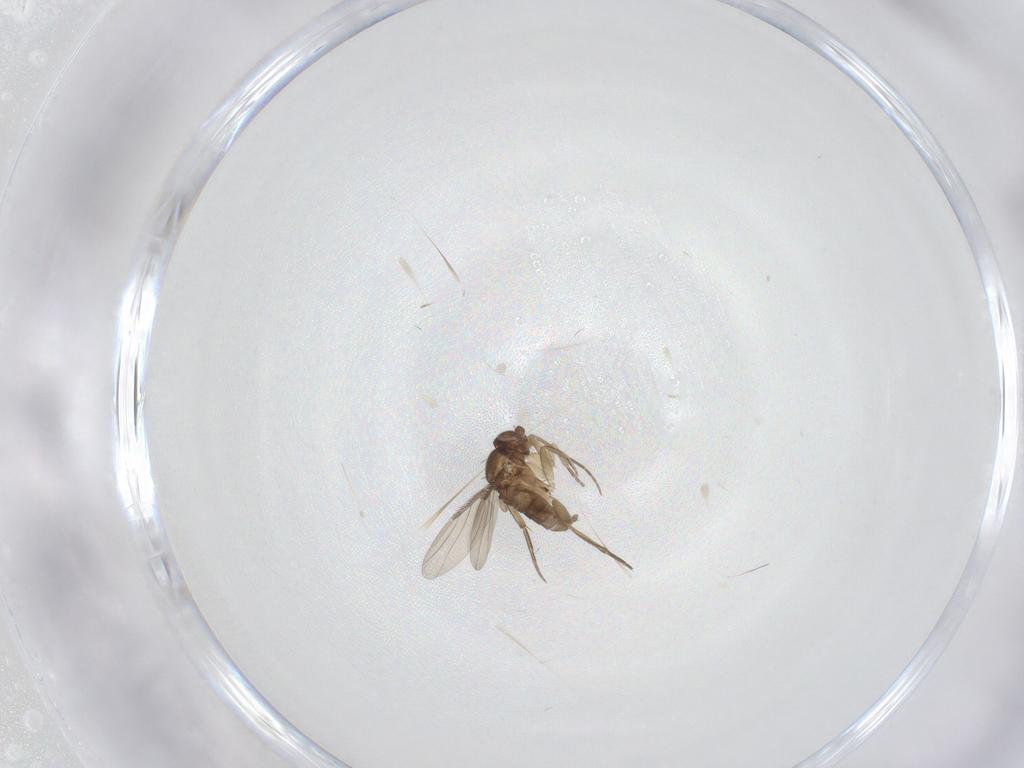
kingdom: Animalia
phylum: Arthropoda
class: Insecta
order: Diptera
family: Phoridae
